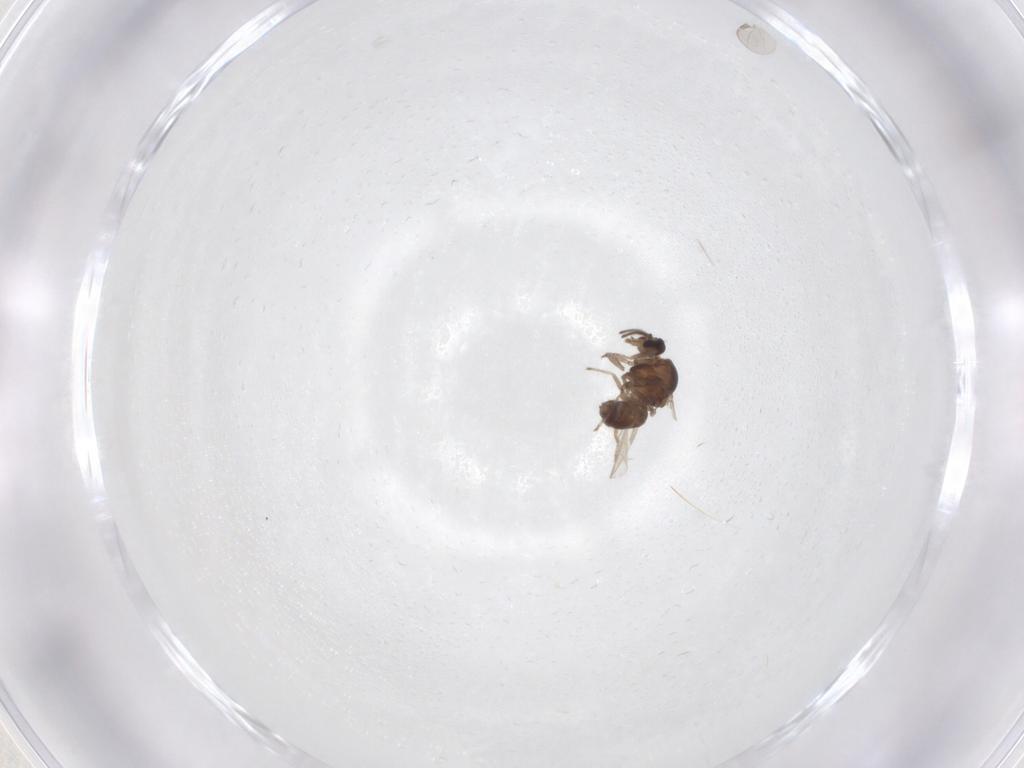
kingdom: Animalia
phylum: Arthropoda
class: Insecta
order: Diptera
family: Ceratopogonidae
